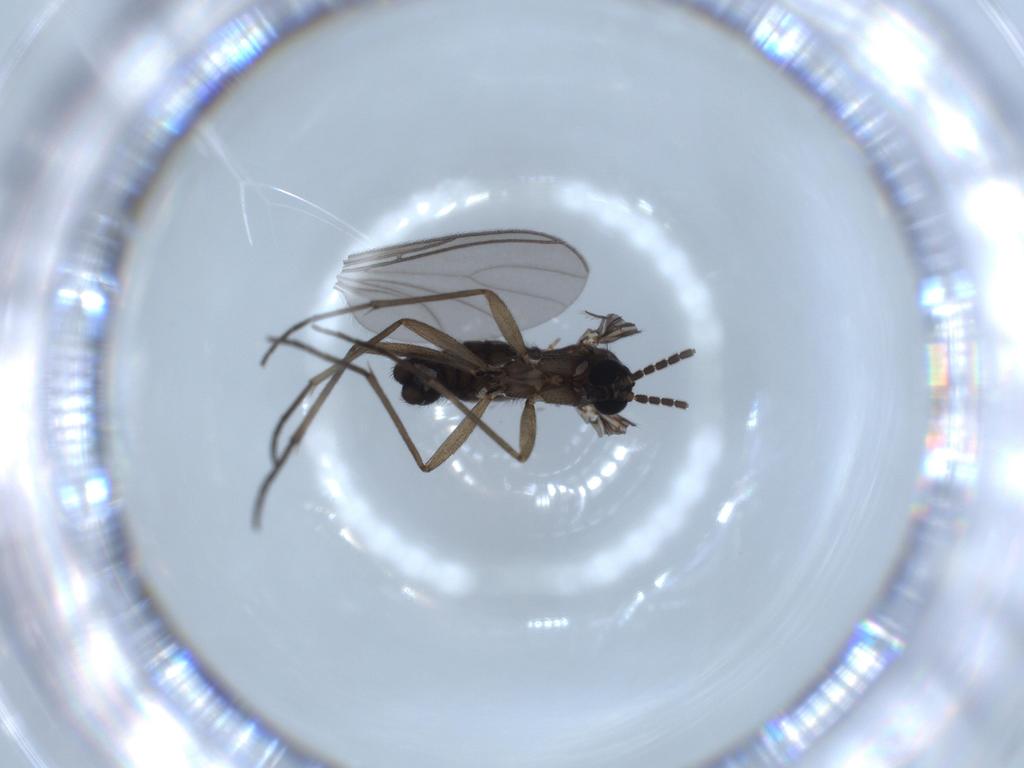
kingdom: Animalia
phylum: Arthropoda
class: Insecta
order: Diptera
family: Sciaridae
